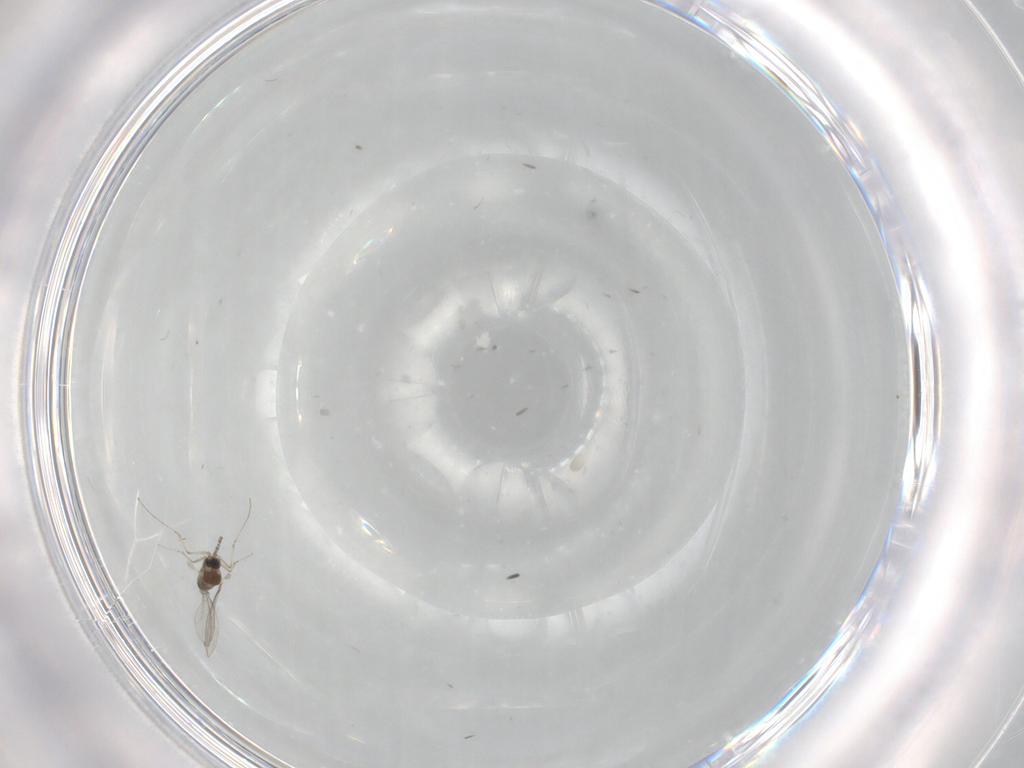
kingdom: Animalia
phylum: Arthropoda
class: Insecta
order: Diptera
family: Cecidomyiidae
